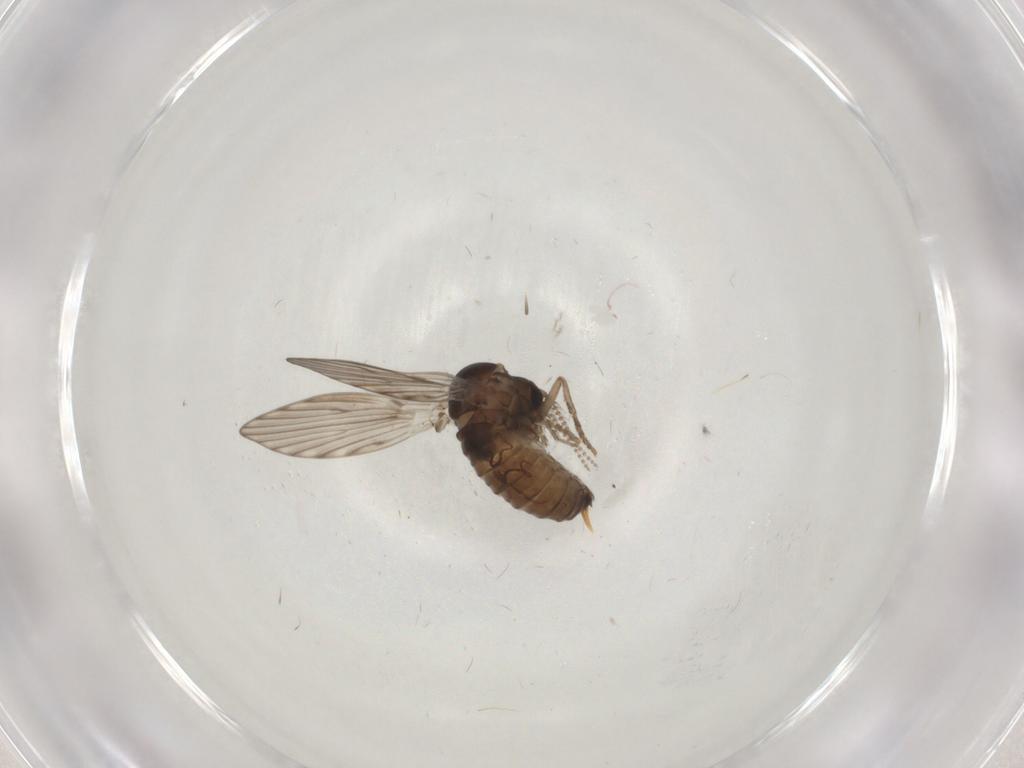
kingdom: Animalia
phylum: Arthropoda
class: Insecta
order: Diptera
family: Psychodidae
